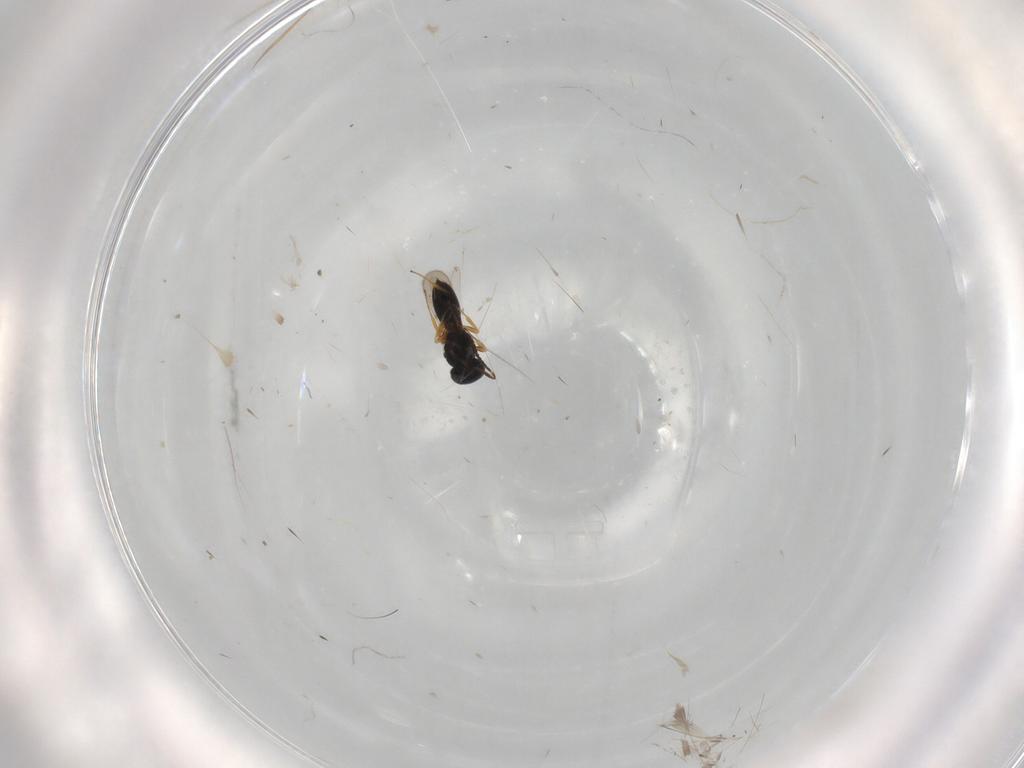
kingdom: Animalia
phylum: Arthropoda
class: Insecta
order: Hymenoptera
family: Scelionidae
